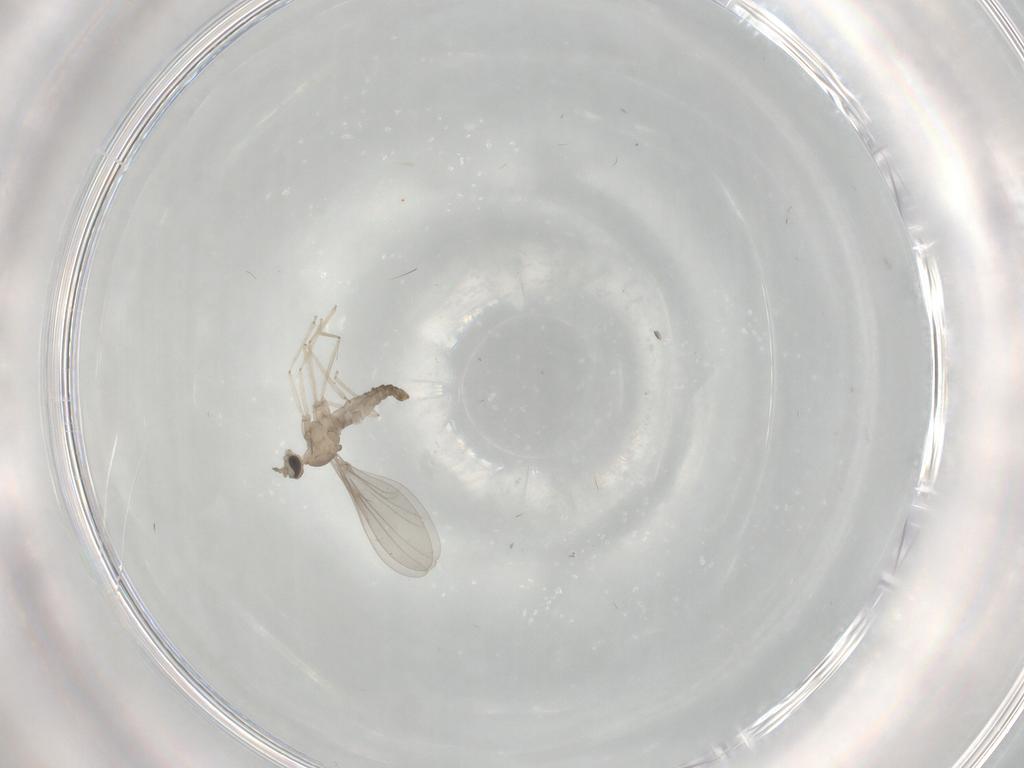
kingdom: Animalia
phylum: Arthropoda
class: Insecta
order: Diptera
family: Cecidomyiidae
